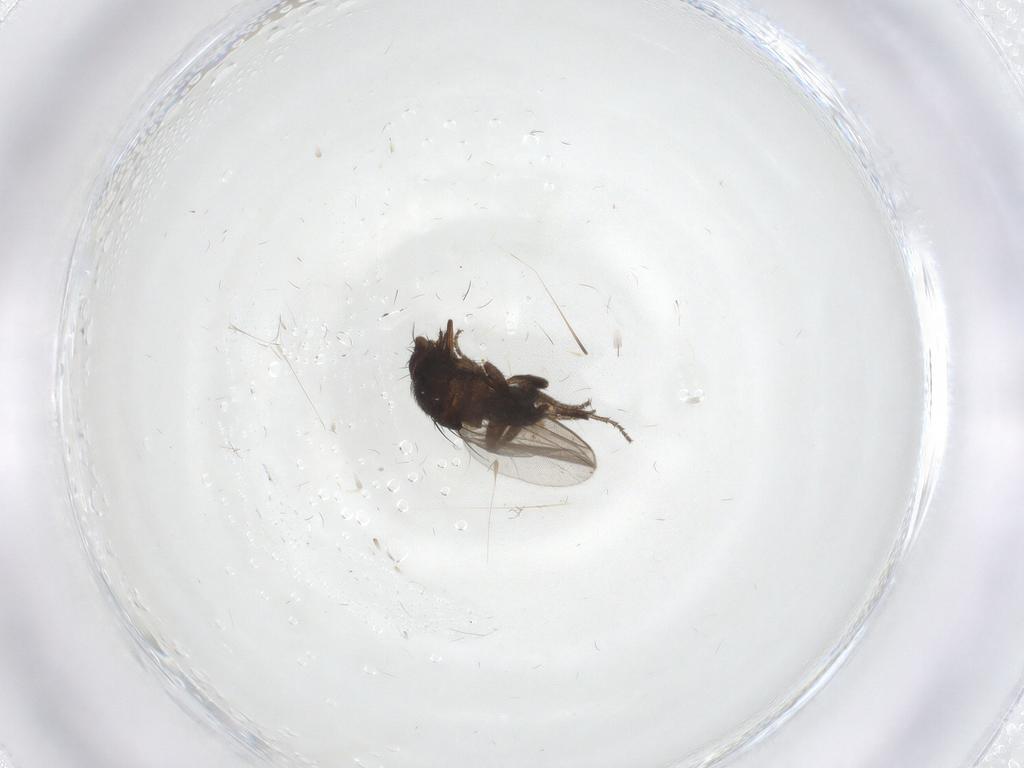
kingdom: Animalia
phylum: Arthropoda
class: Insecta
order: Diptera
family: Milichiidae
